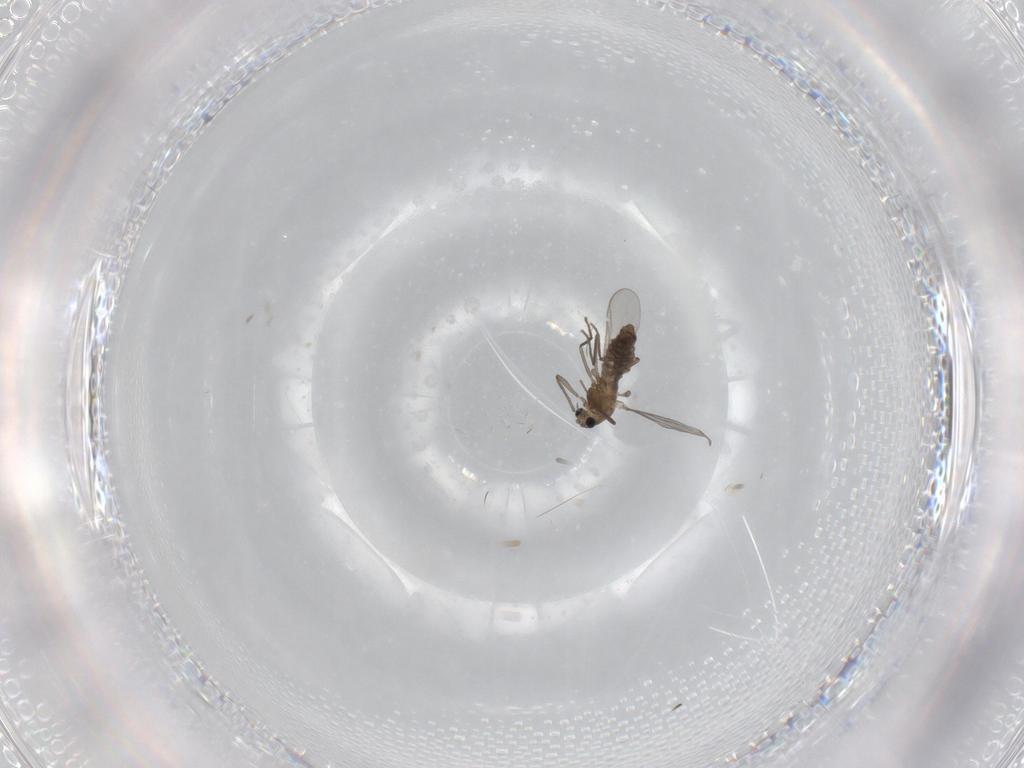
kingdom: Animalia
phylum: Arthropoda
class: Insecta
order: Diptera
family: Chironomidae
